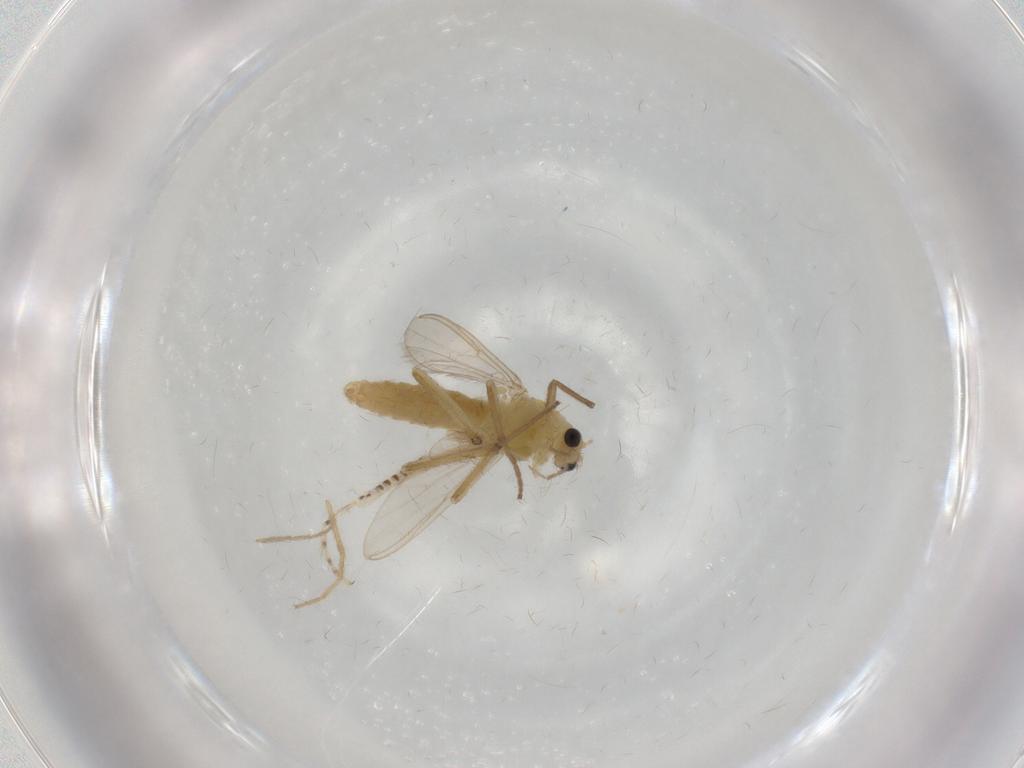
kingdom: Animalia
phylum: Arthropoda
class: Insecta
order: Diptera
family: Chironomidae
